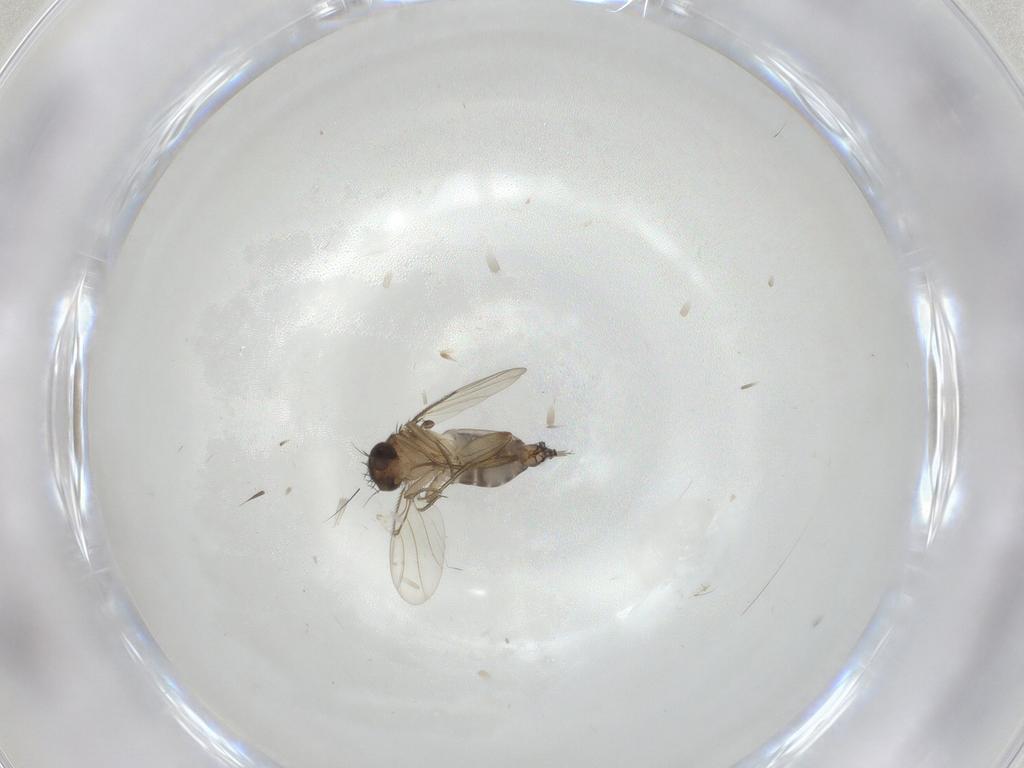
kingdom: Animalia
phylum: Arthropoda
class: Insecta
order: Diptera
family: Phoridae
